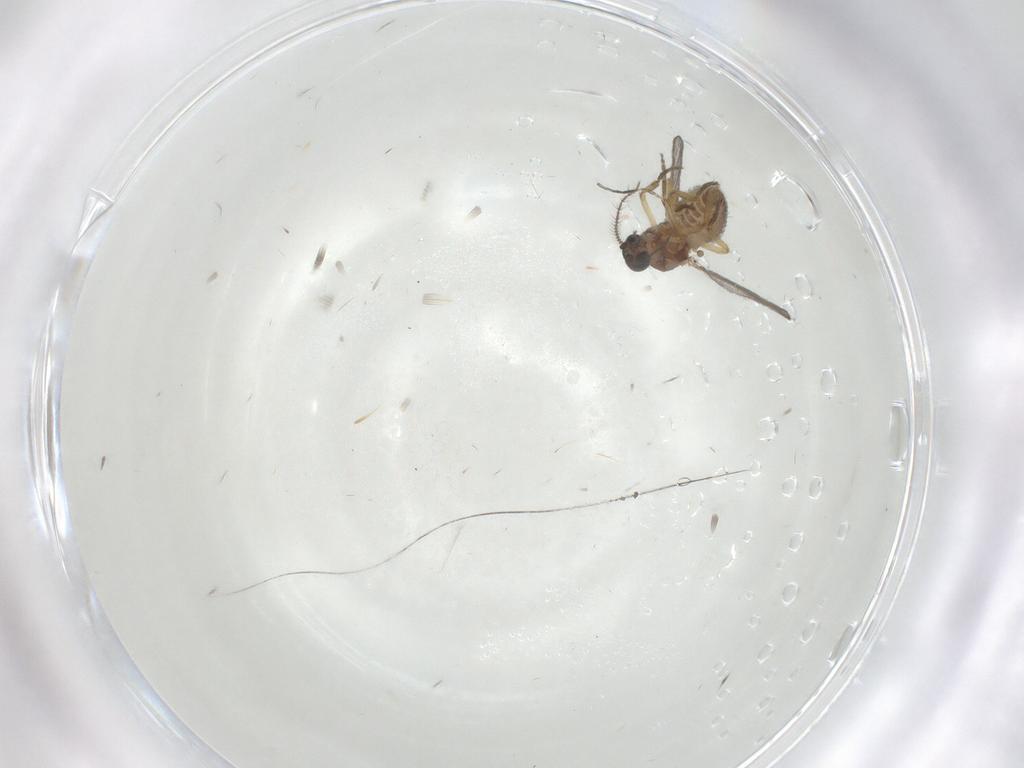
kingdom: Animalia
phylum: Arthropoda
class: Insecta
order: Diptera
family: Ceratopogonidae
